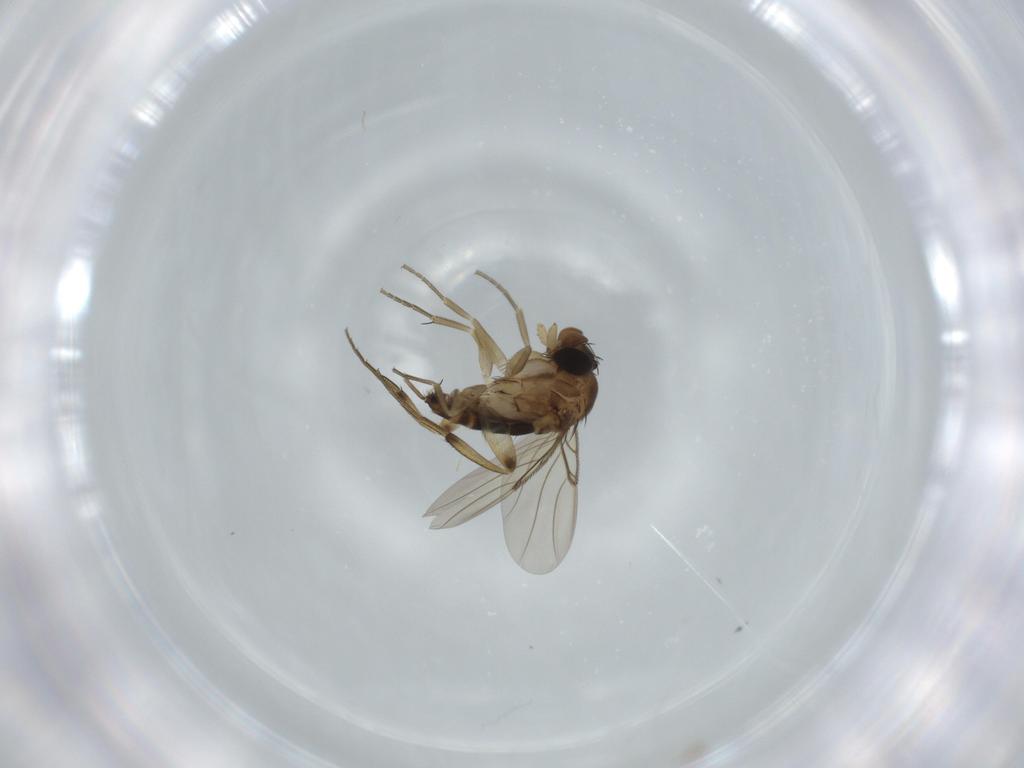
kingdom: Animalia
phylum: Arthropoda
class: Insecta
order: Diptera
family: Phoridae
